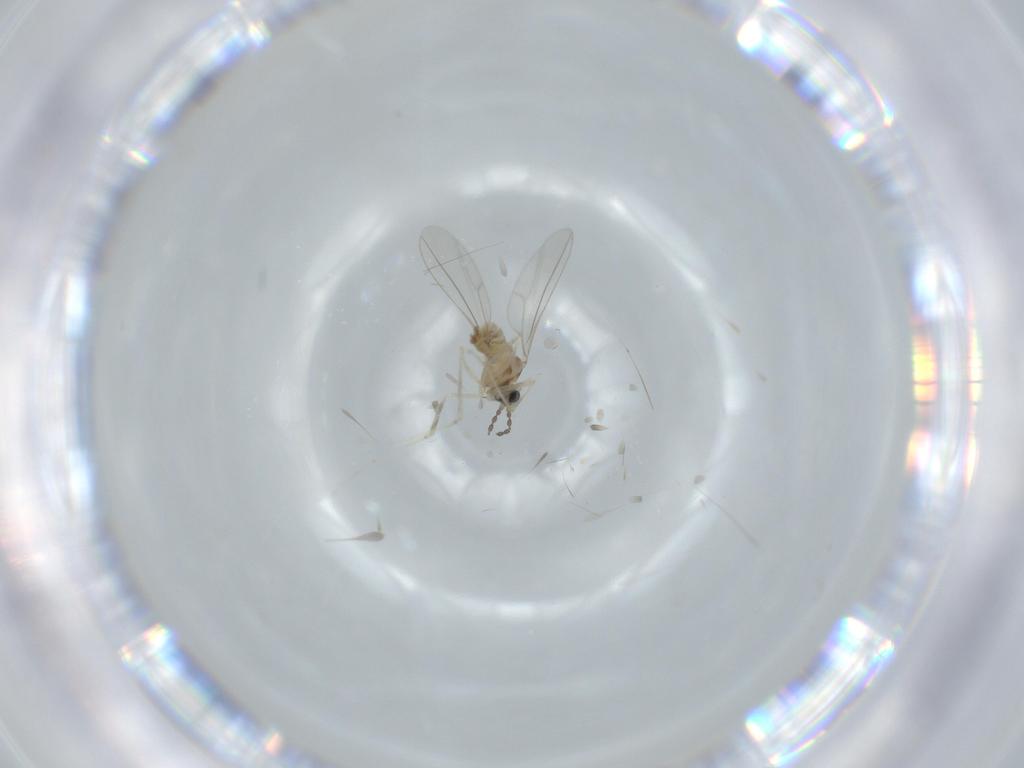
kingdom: Animalia
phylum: Arthropoda
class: Insecta
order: Diptera
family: Cecidomyiidae
